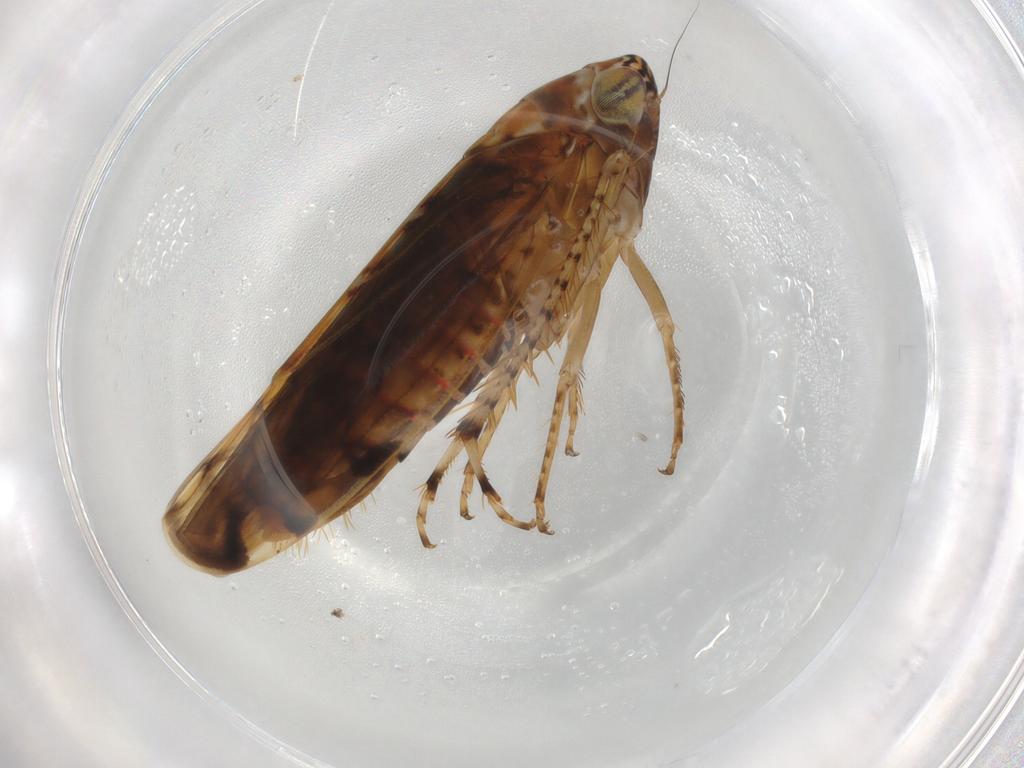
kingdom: Animalia
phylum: Arthropoda
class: Insecta
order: Hemiptera
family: Cicadellidae
